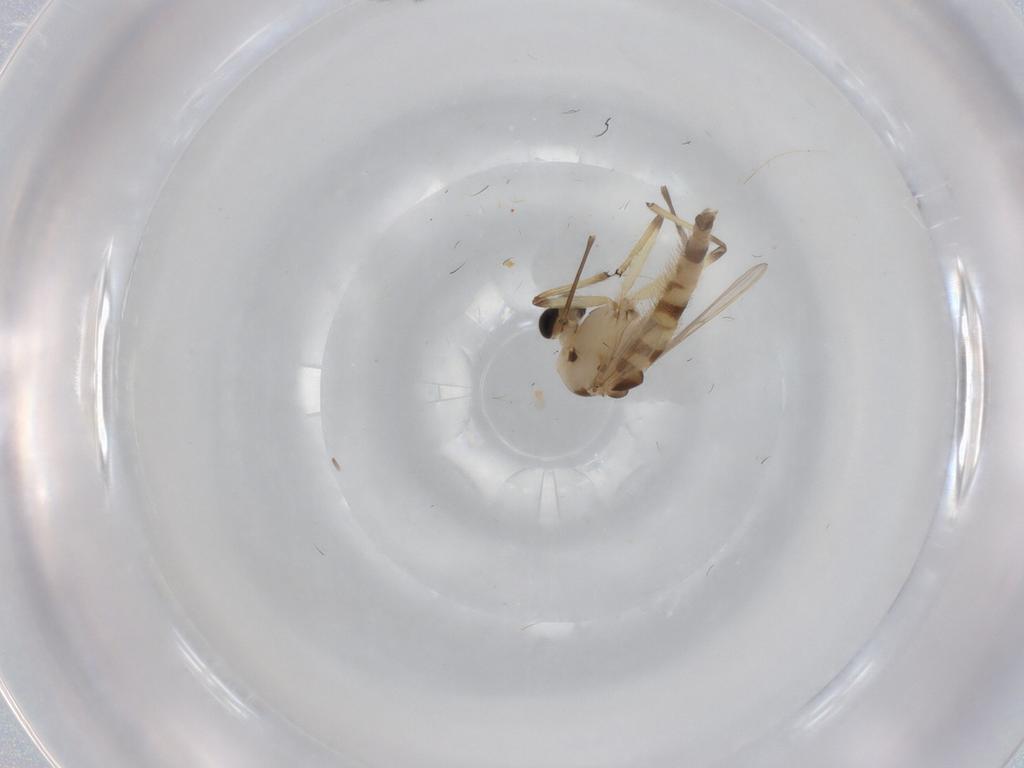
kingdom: Animalia
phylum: Arthropoda
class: Insecta
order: Diptera
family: Chironomidae
